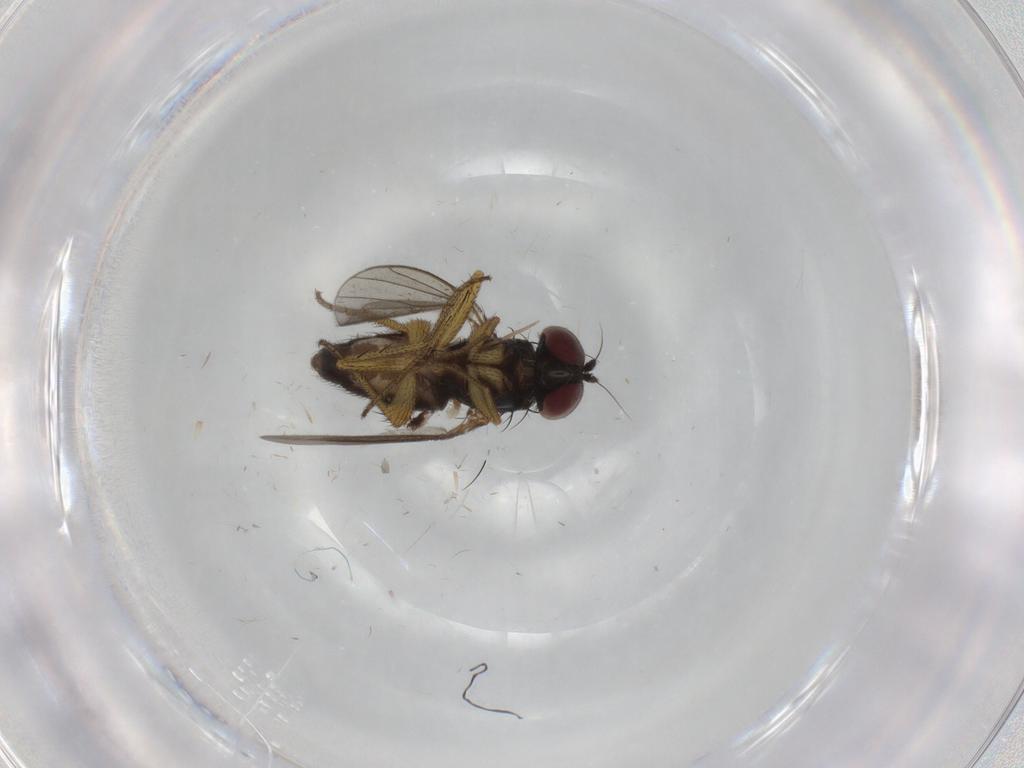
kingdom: Animalia
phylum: Arthropoda
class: Insecta
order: Diptera
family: Dolichopodidae
